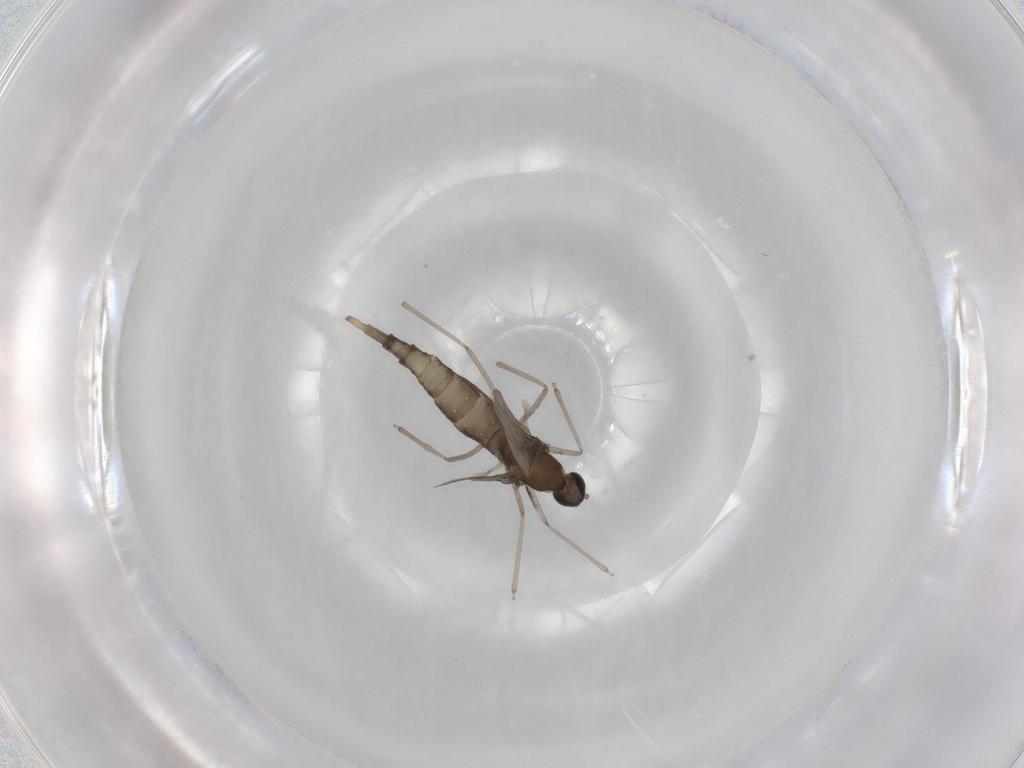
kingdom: Animalia
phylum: Arthropoda
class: Insecta
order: Diptera
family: Cecidomyiidae
